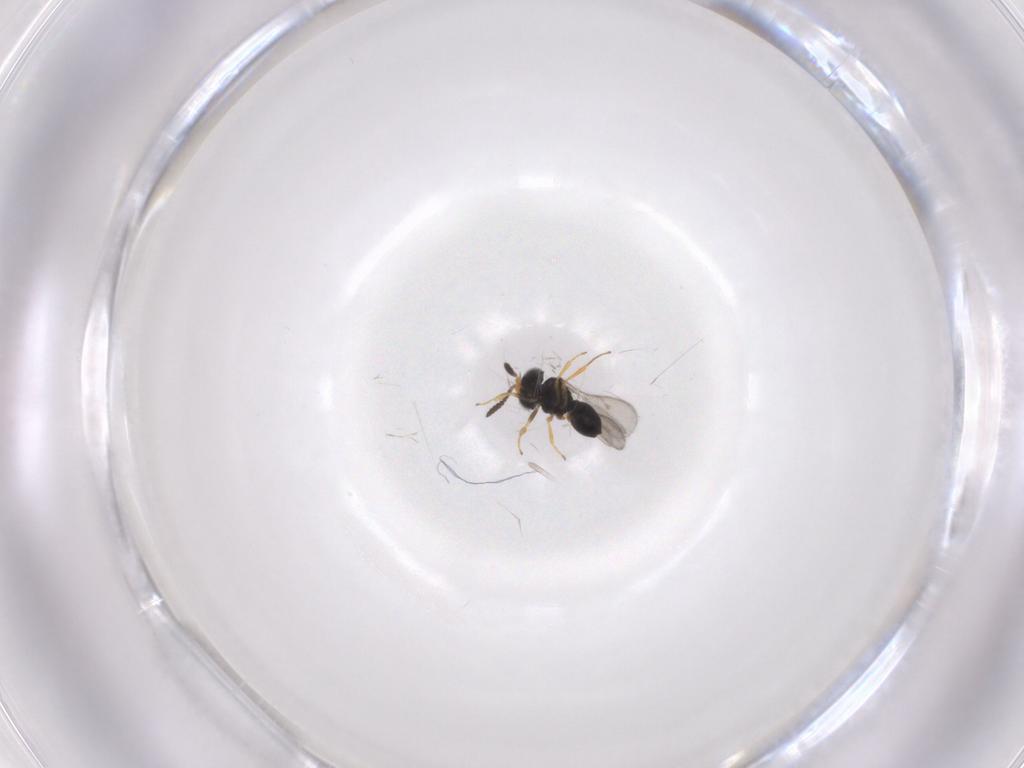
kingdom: Animalia
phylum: Arthropoda
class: Insecta
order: Hymenoptera
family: Scelionidae
